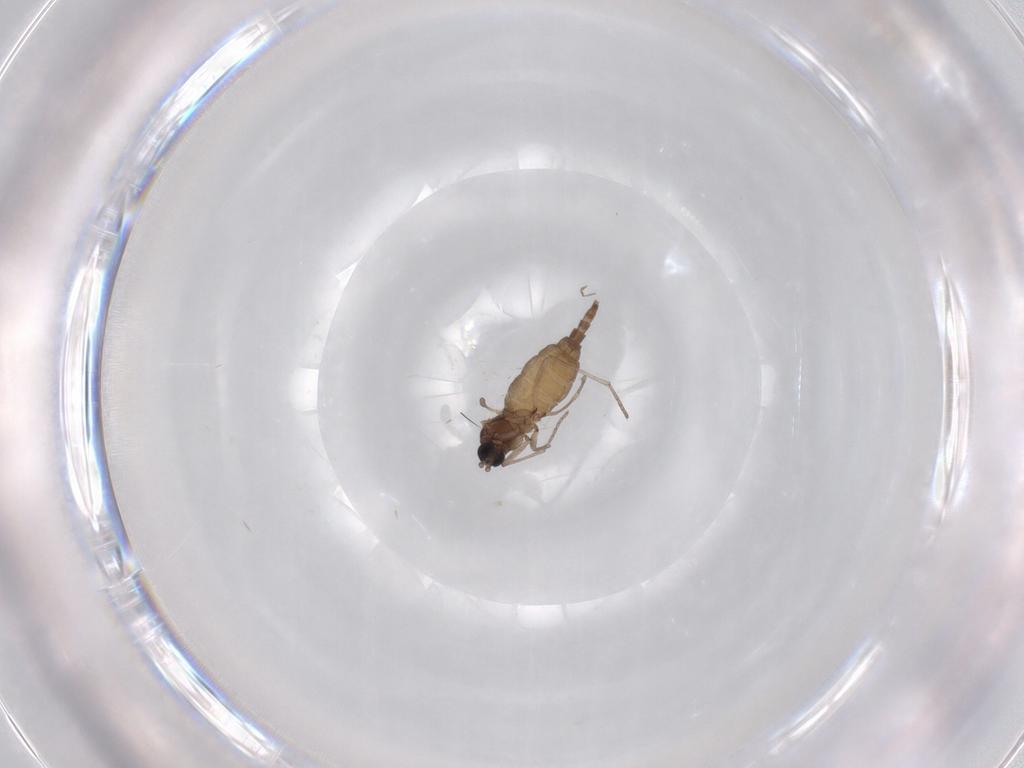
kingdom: Animalia
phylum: Arthropoda
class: Insecta
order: Diptera
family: Sciaridae
